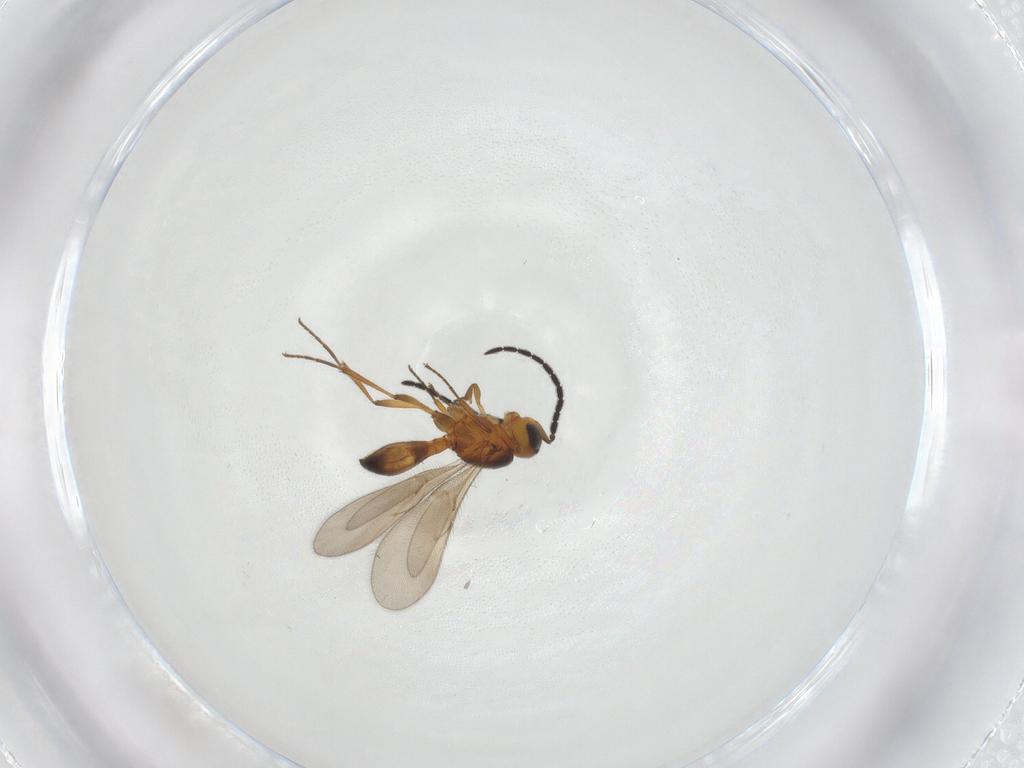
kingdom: Animalia
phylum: Arthropoda
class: Insecta
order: Hymenoptera
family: Scelionidae
